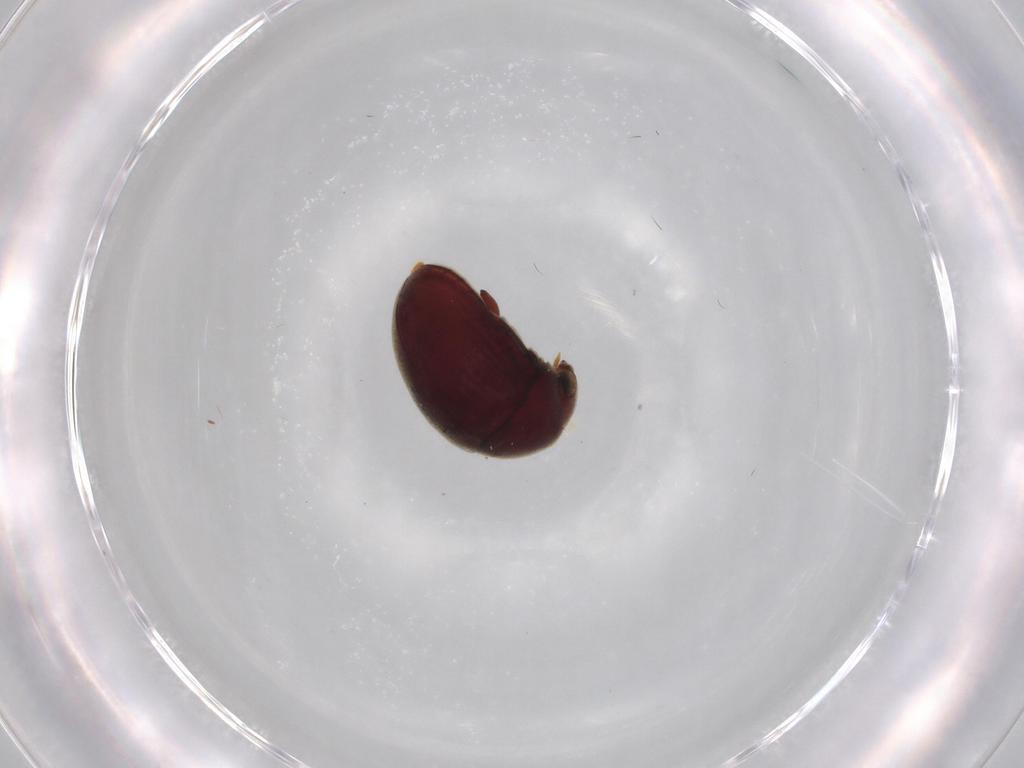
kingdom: Animalia
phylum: Arthropoda
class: Insecta
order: Coleoptera
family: Ptinidae
